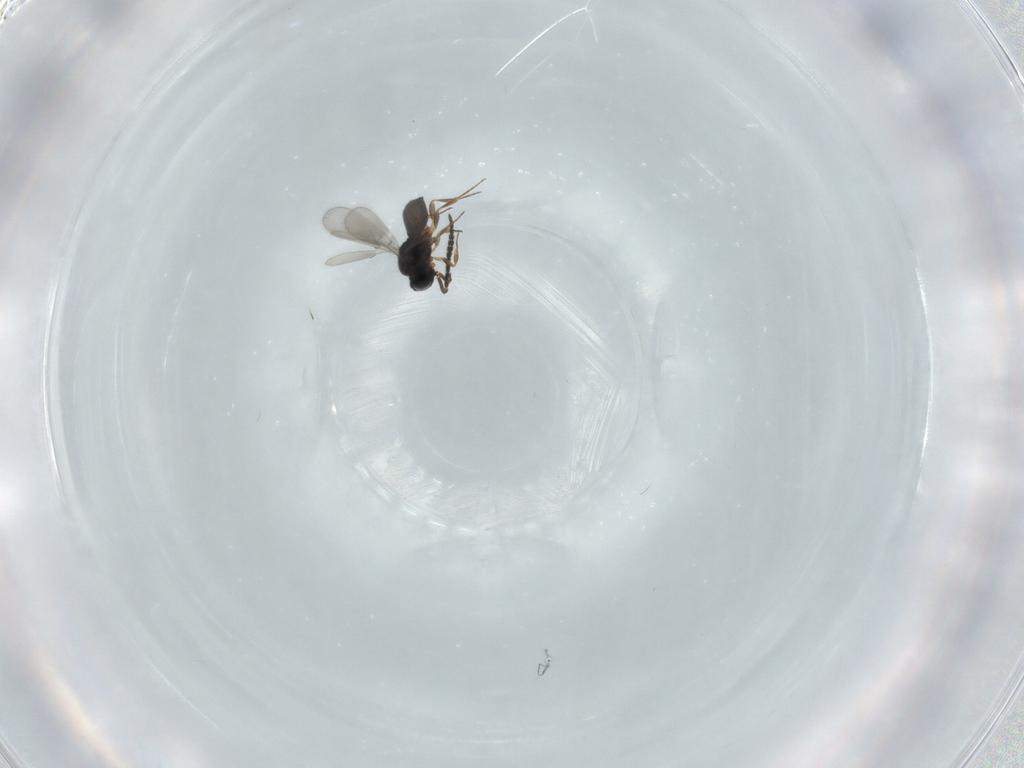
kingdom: Animalia
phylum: Arthropoda
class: Insecta
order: Hymenoptera
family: Scelionidae
